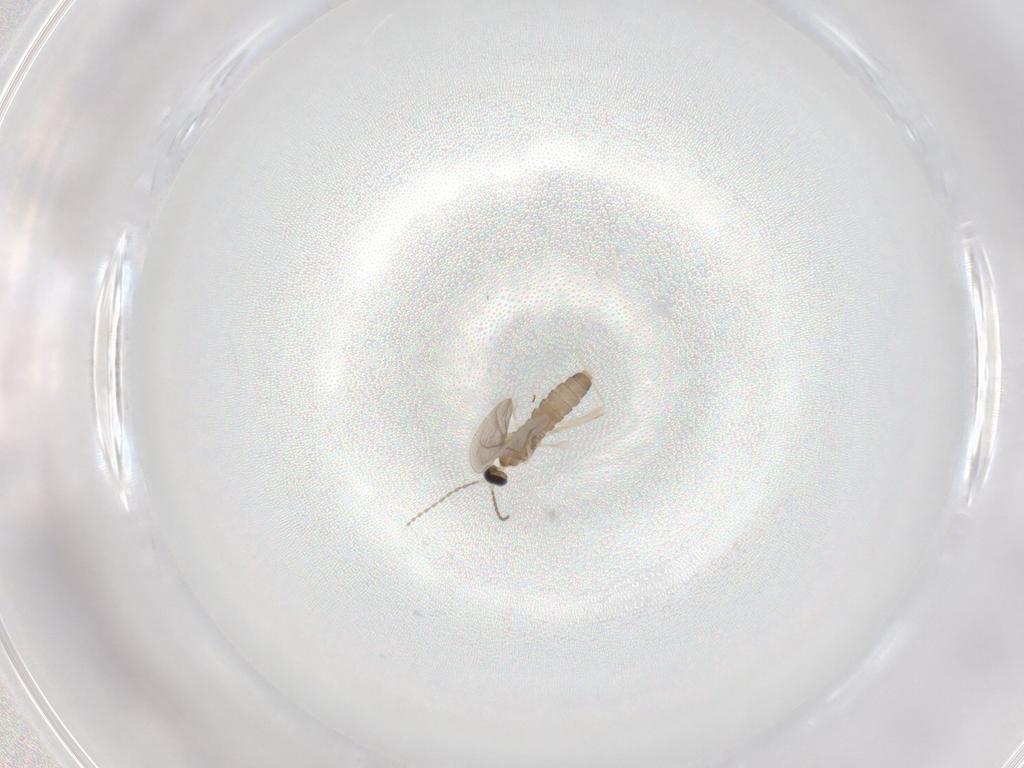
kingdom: Animalia
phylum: Arthropoda
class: Insecta
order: Diptera
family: Cecidomyiidae
